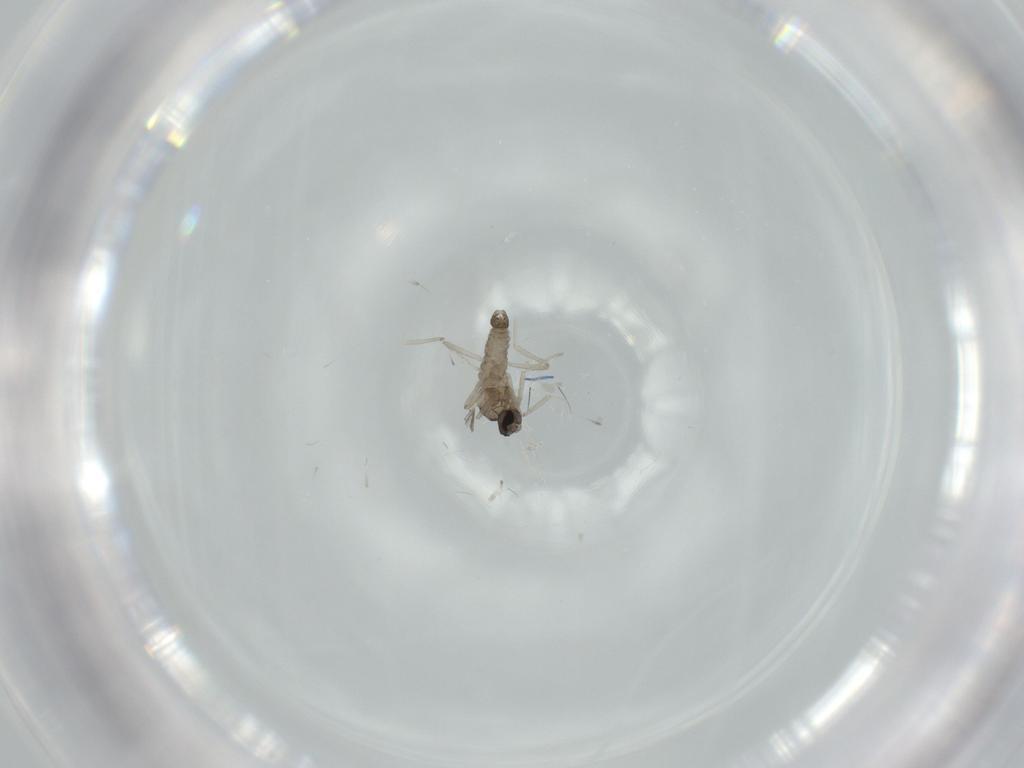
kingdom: Animalia
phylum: Arthropoda
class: Insecta
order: Diptera
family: Cecidomyiidae
